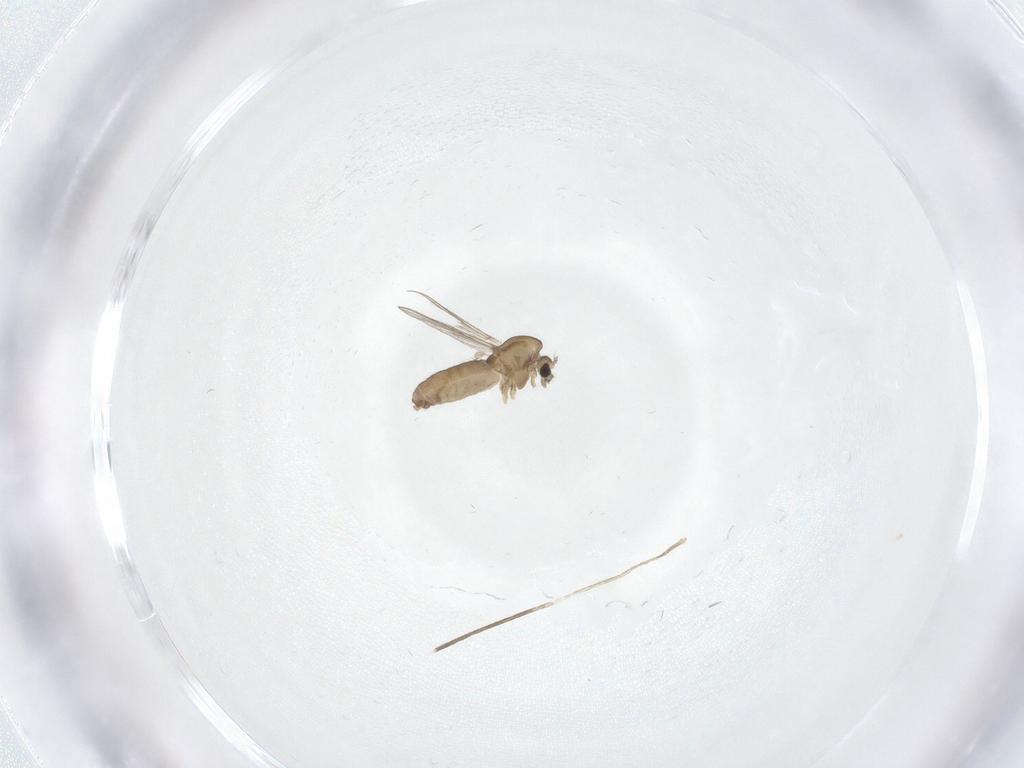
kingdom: Animalia
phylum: Arthropoda
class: Insecta
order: Diptera
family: Chironomidae
